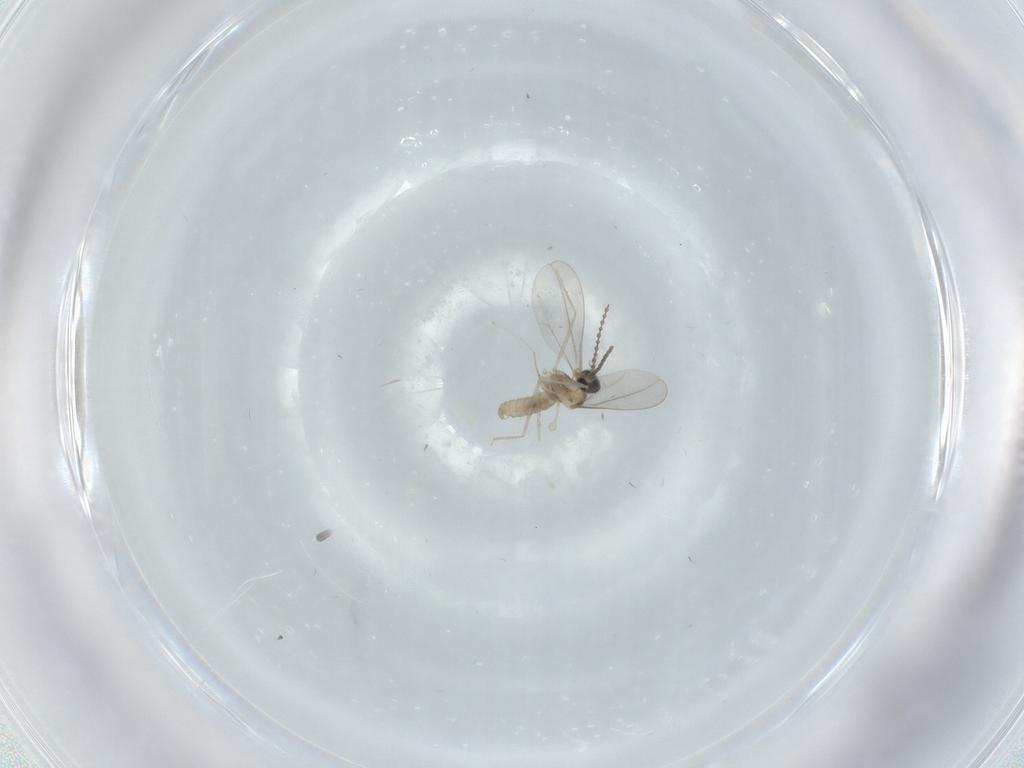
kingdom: Animalia
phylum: Arthropoda
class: Insecta
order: Diptera
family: Cecidomyiidae
